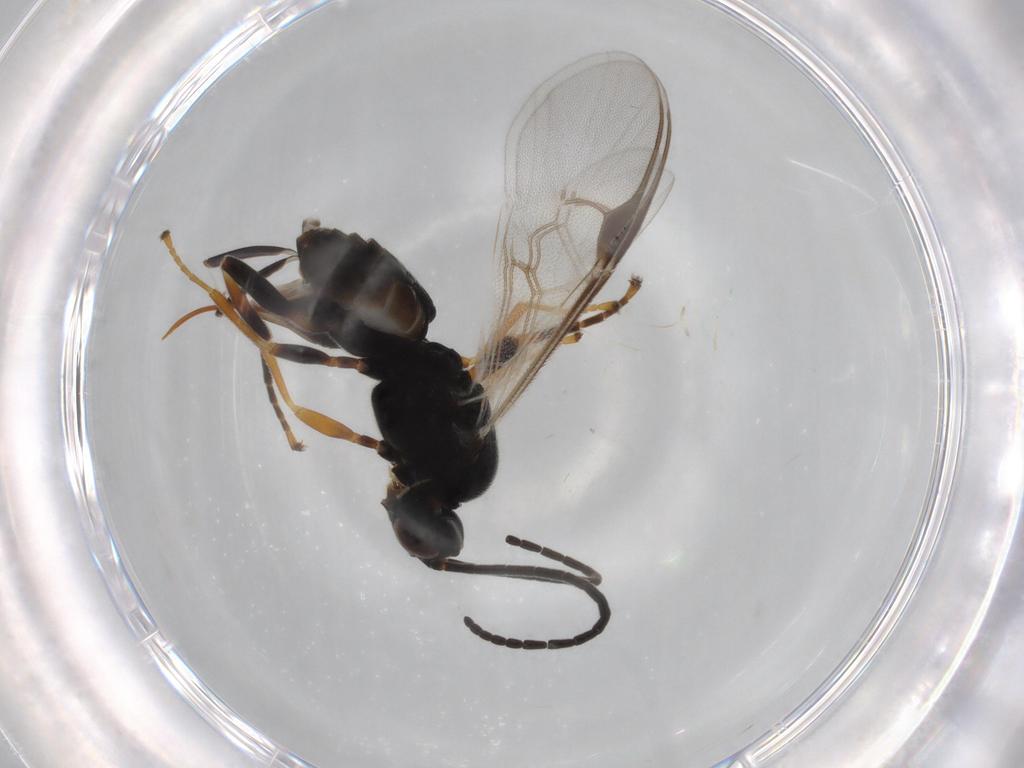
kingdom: Animalia
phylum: Arthropoda
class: Insecta
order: Hymenoptera
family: Braconidae
